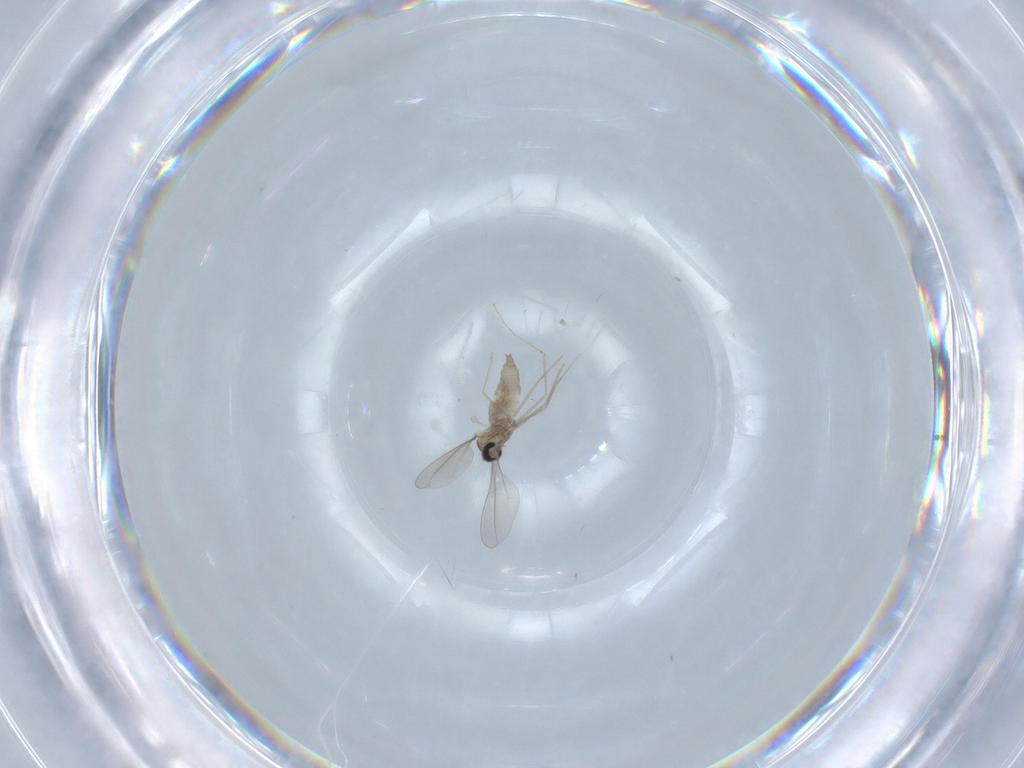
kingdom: Animalia
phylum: Arthropoda
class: Insecta
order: Diptera
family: Cecidomyiidae
